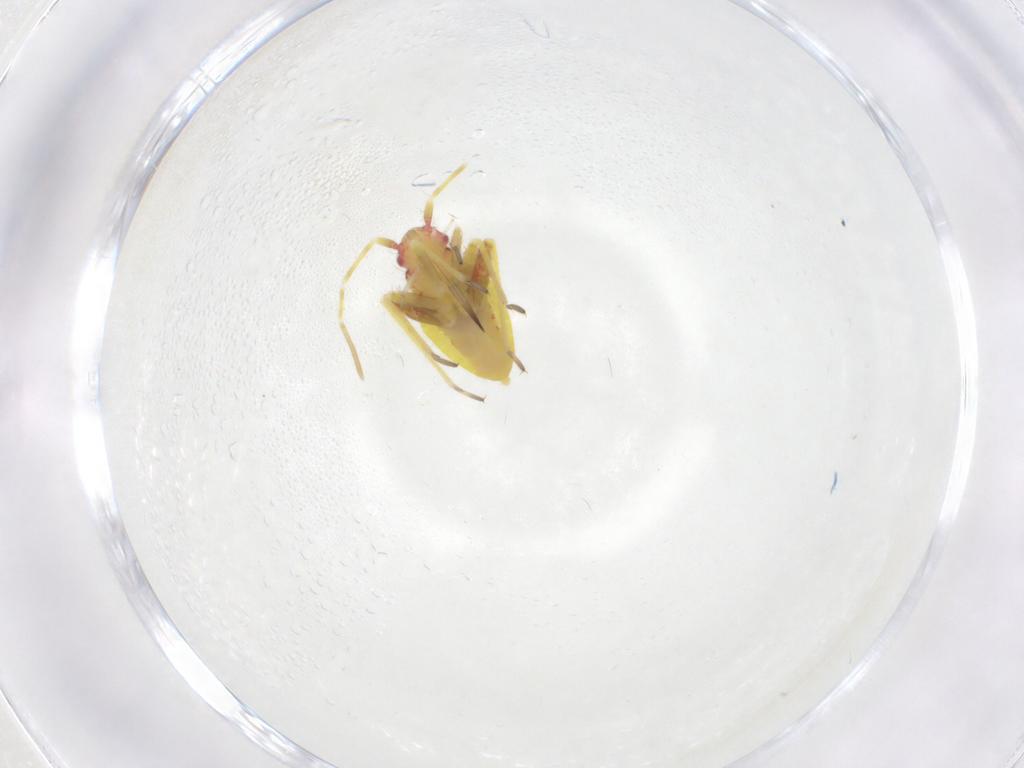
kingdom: Animalia
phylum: Arthropoda
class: Insecta
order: Hemiptera
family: Miridae
